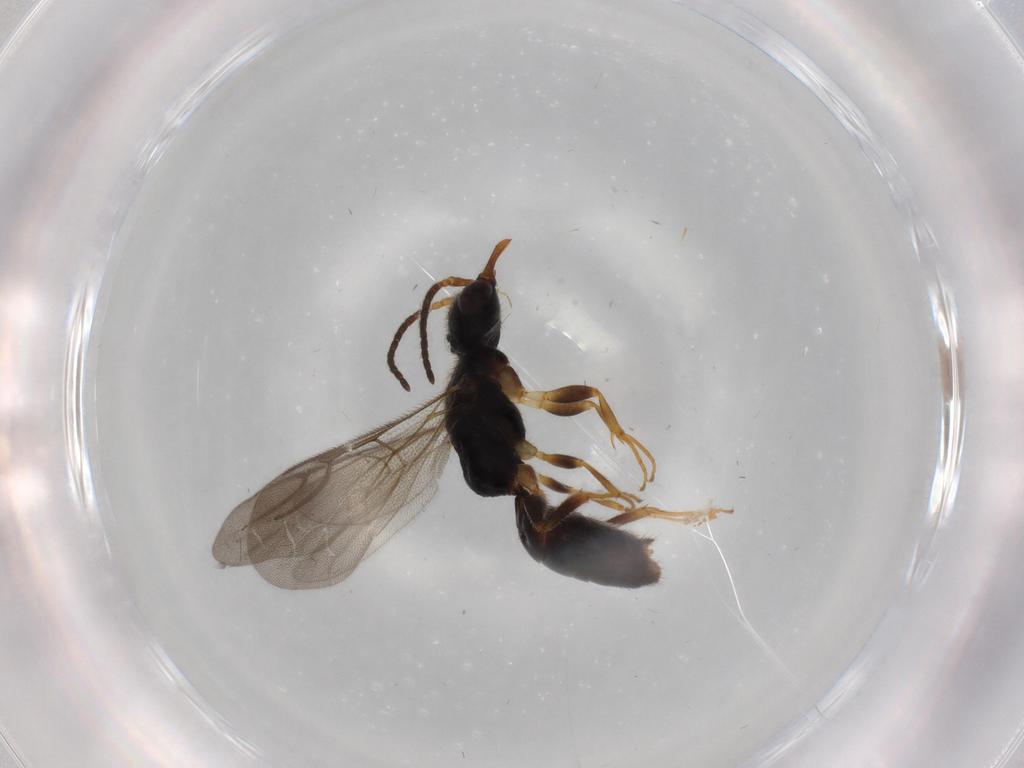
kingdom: Animalia
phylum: Arthropoda
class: Insecta
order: Hymenoptera
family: Bethylidae
